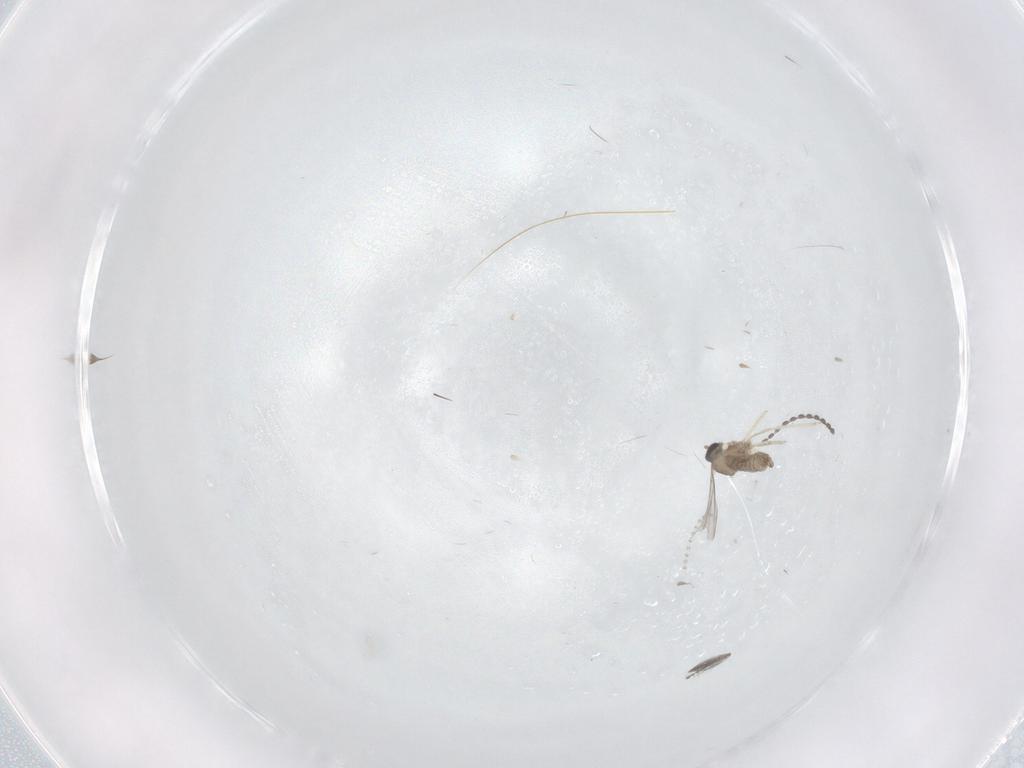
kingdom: Animalia
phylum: Arthropoda
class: Insecta
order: Diptera
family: Cecidomyiidae
